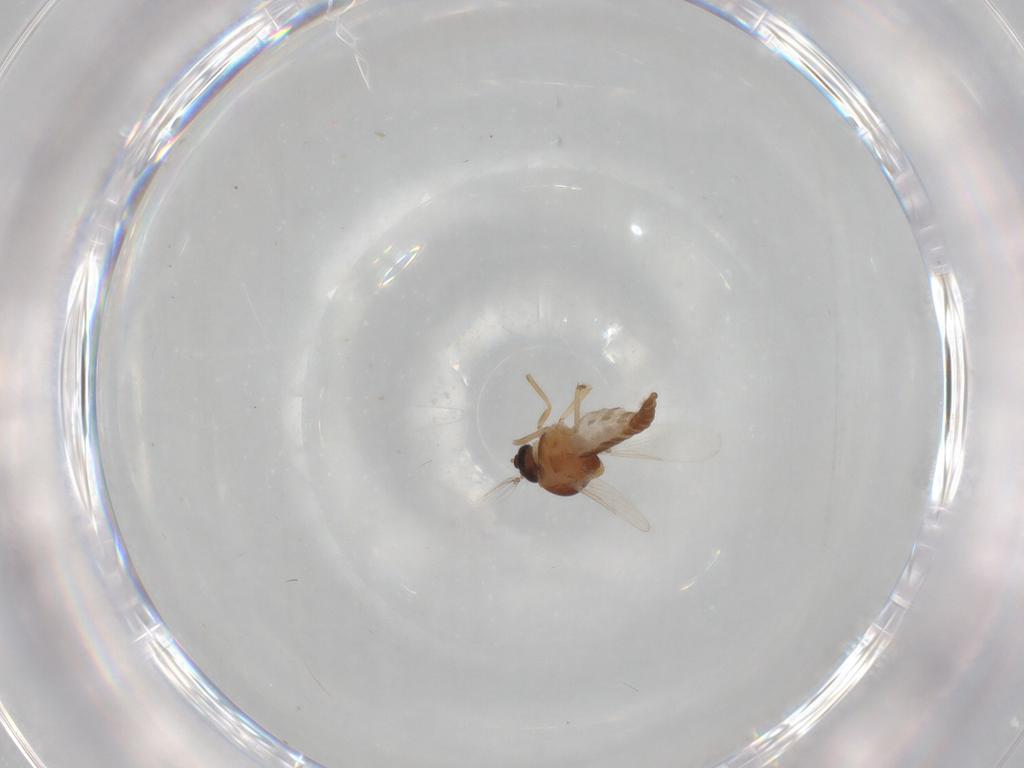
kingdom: Animalia
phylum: Arthropoda
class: Insecta
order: Diptera
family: Ceratopogonidae
